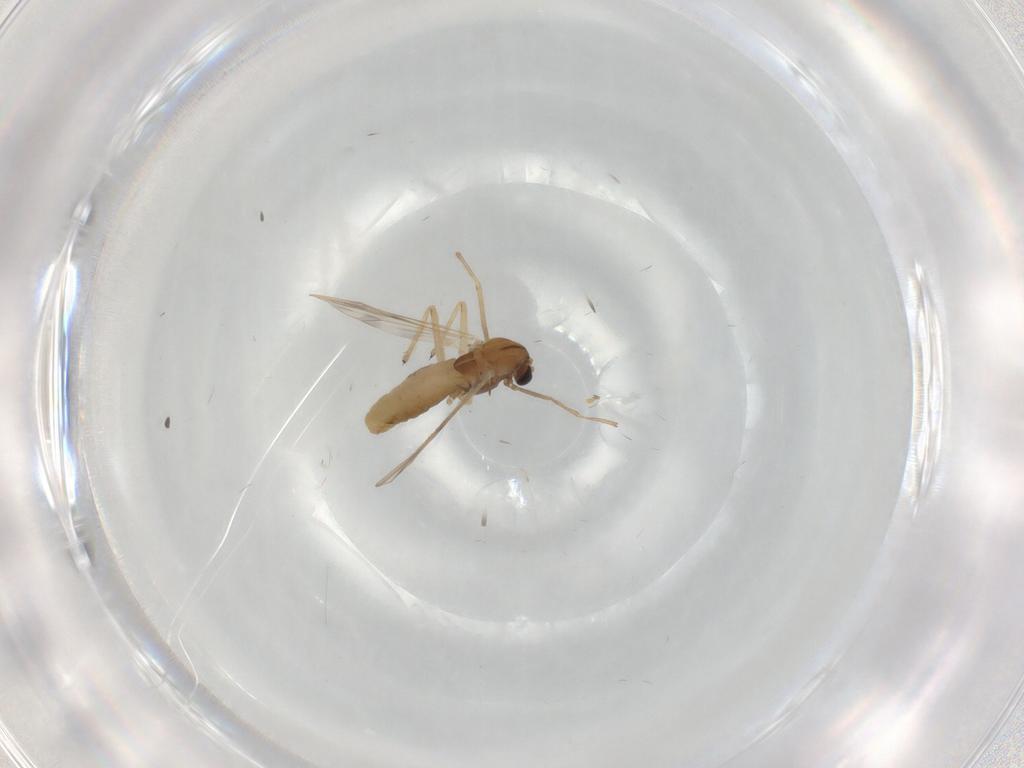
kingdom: Animalia
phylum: Arthropoda
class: Insecta
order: Diptera
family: Chironomidae
